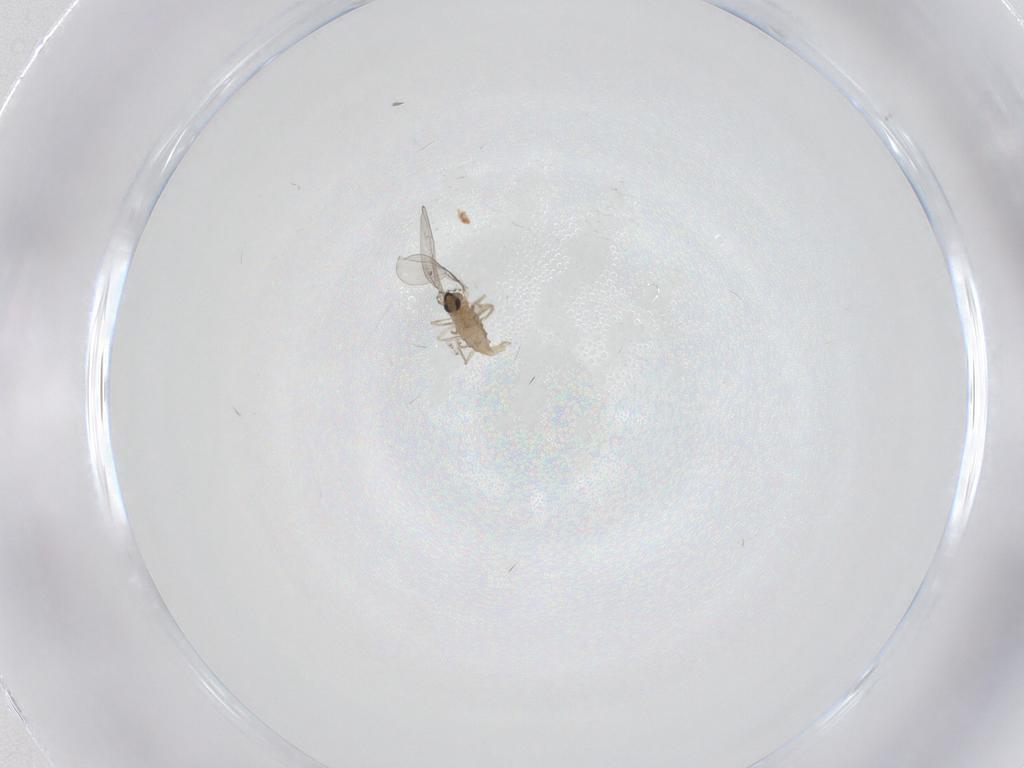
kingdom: Animalia
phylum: Arthropoda
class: Insecta
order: Diptera
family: Cecidomyiidae
